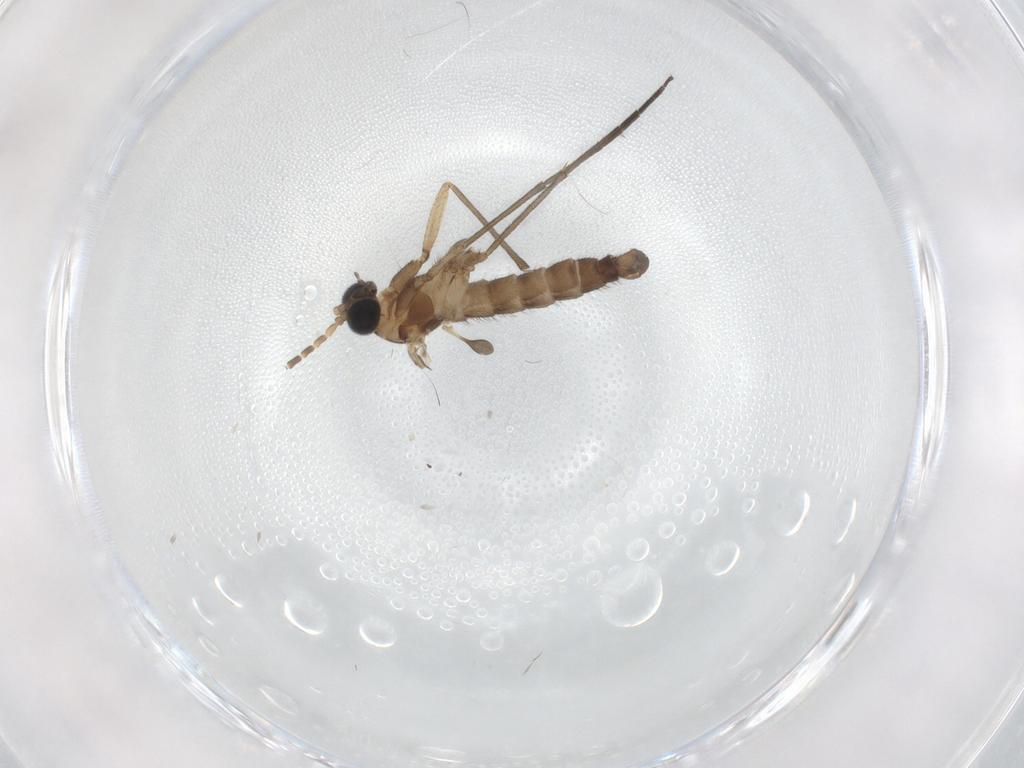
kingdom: Animalia
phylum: Arthropoda
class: Insecta
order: Diptera
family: Sciaridae
